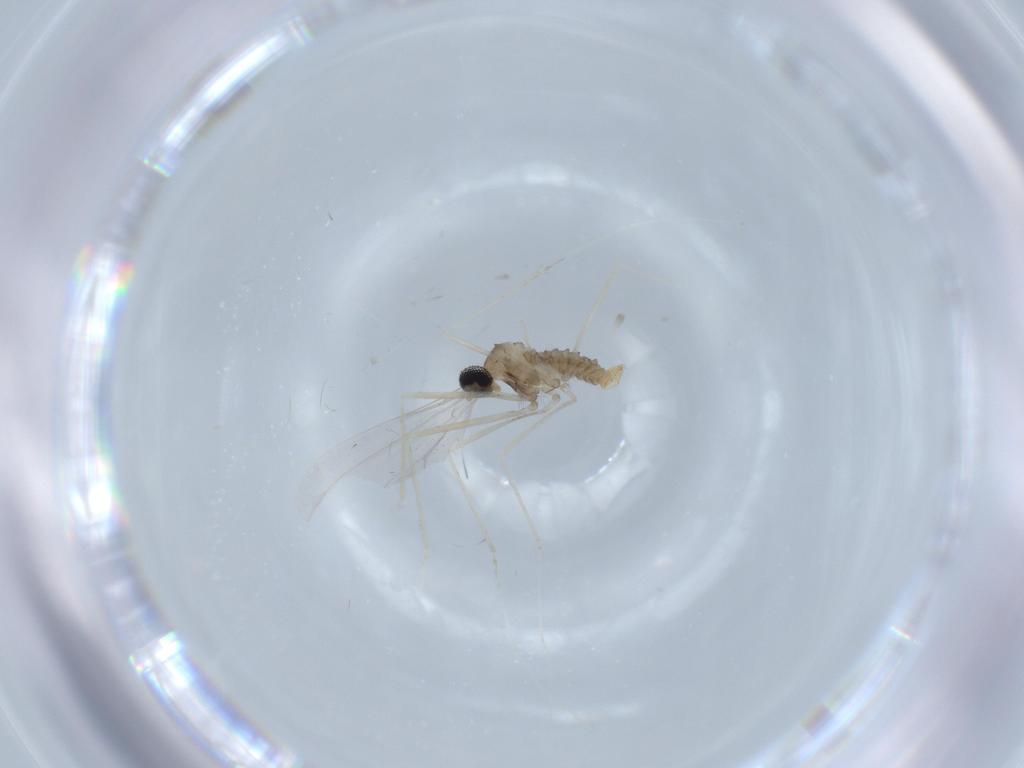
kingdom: Animalia
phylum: Arthropoda
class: Insecta
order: Diptera
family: Cecidomyiidae
